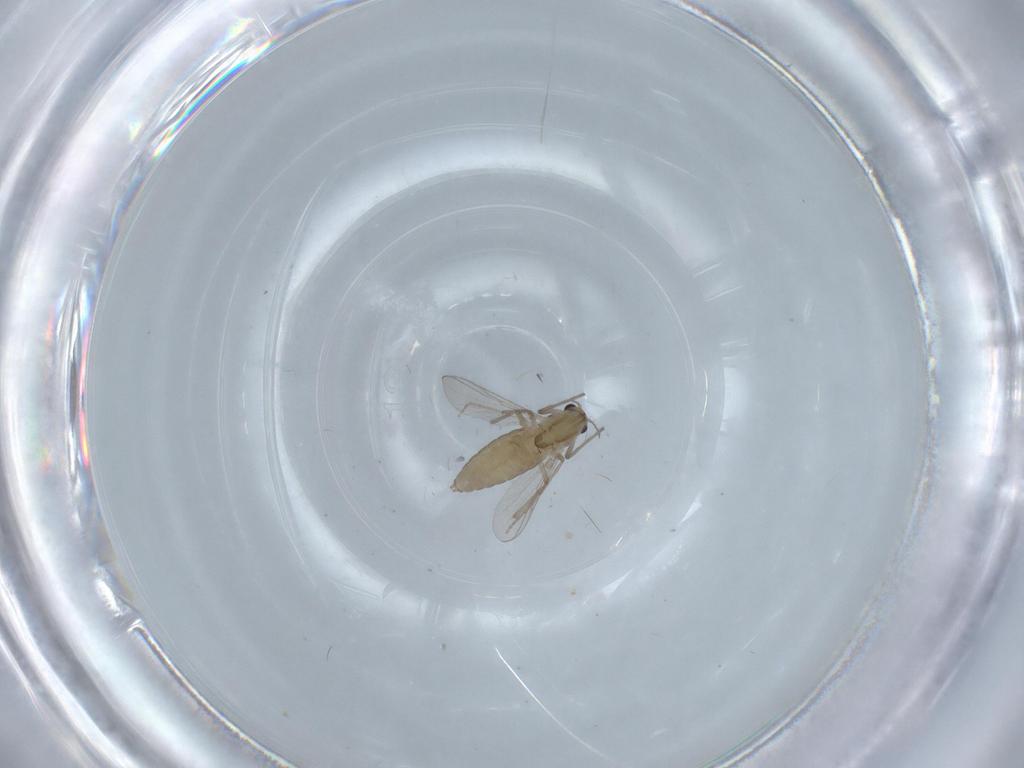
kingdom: Animalia
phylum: Arthropoda
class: Insecta
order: Diptera
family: Chironomidae
